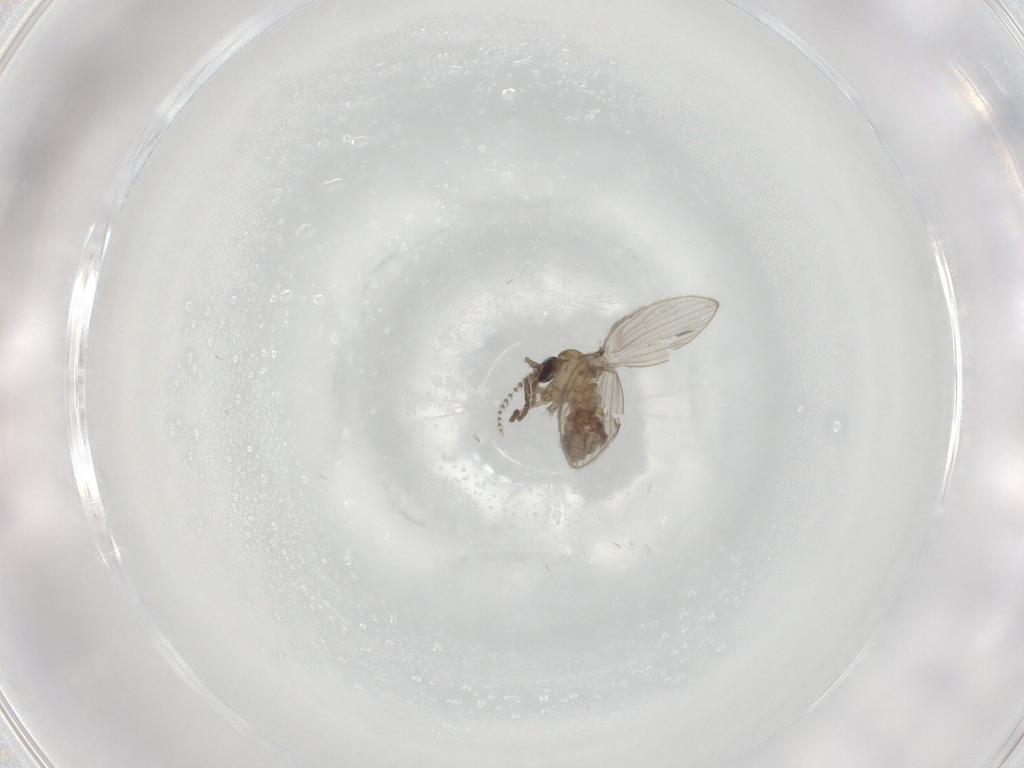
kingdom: Animalia
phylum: Arthropoda
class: Insecta
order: Diptera
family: Psychodidae
